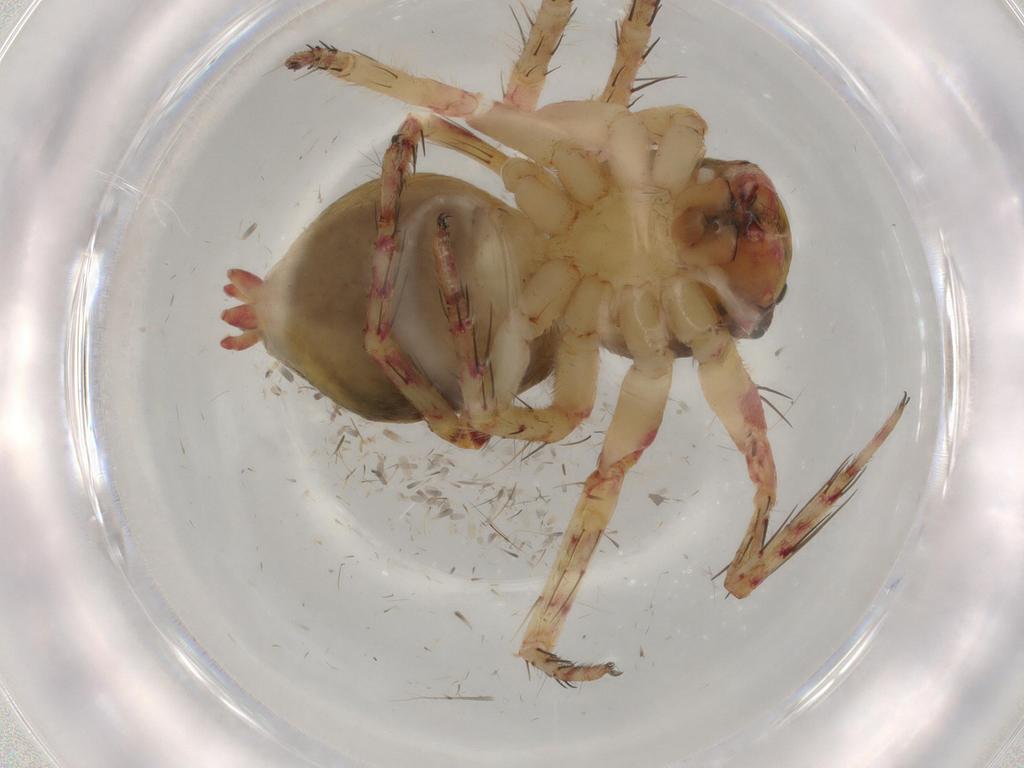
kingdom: Animalia
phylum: Arthropoda
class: Arachnida
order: Araneae
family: Oxyopidae
